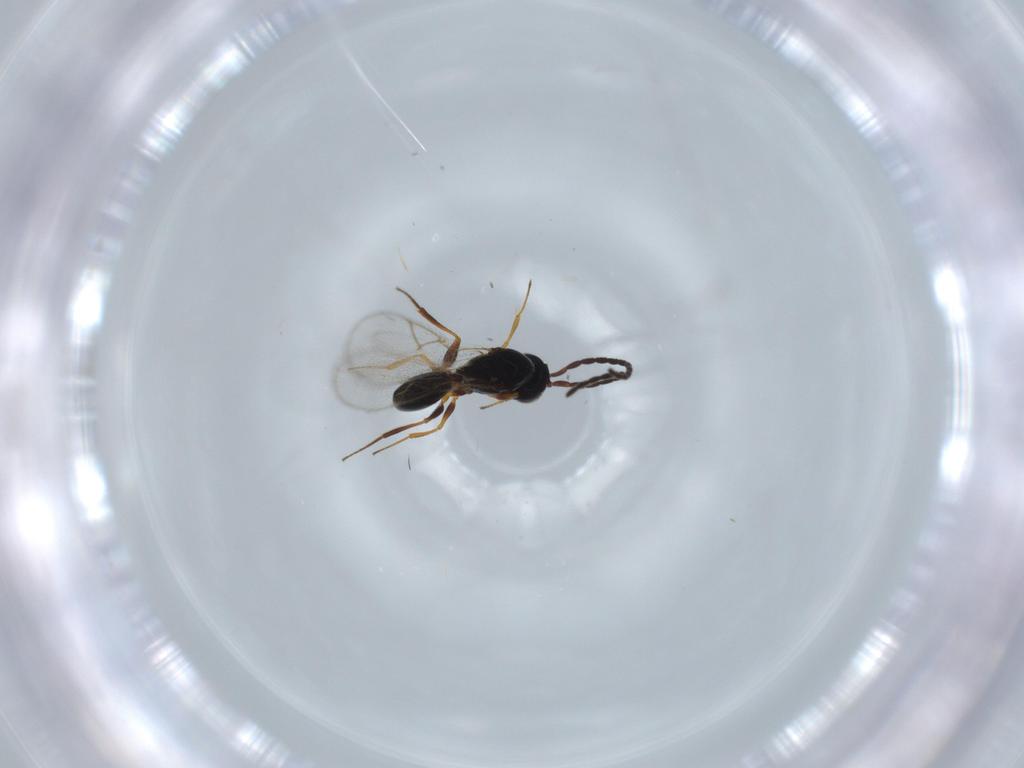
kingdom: Animalia
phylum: Arthropoda
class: Insecta
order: Hymenoptera
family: Figitidae
